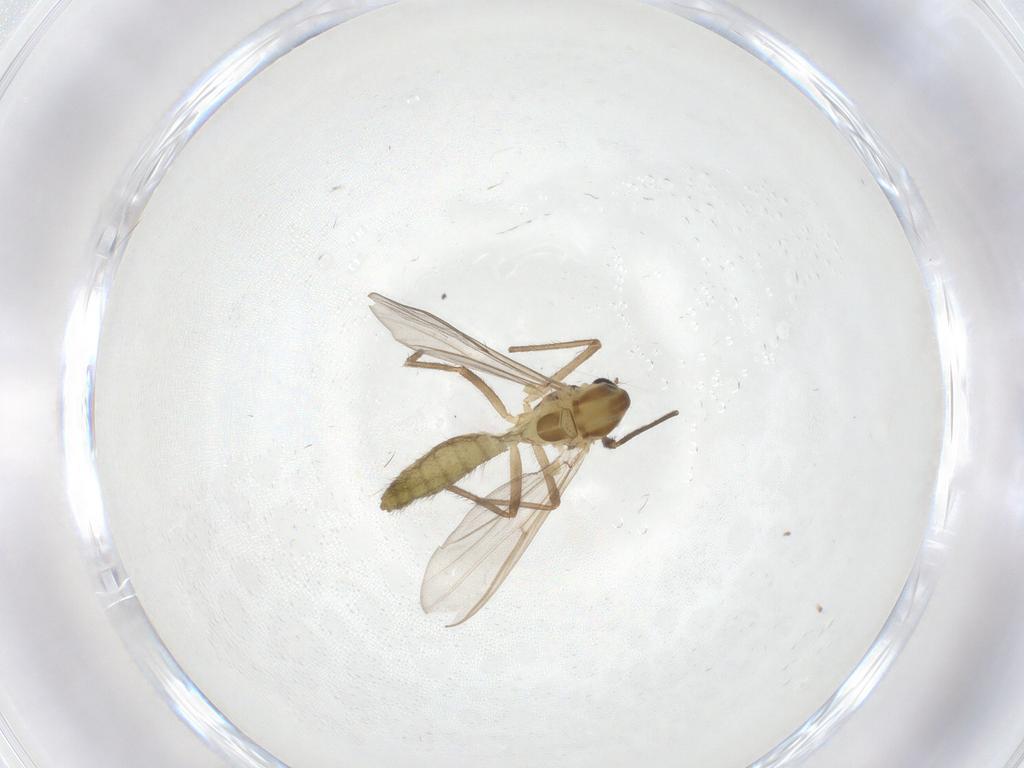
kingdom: Animalia
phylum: Arthropoda
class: Insecta
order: Diptera
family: Chironomidae
